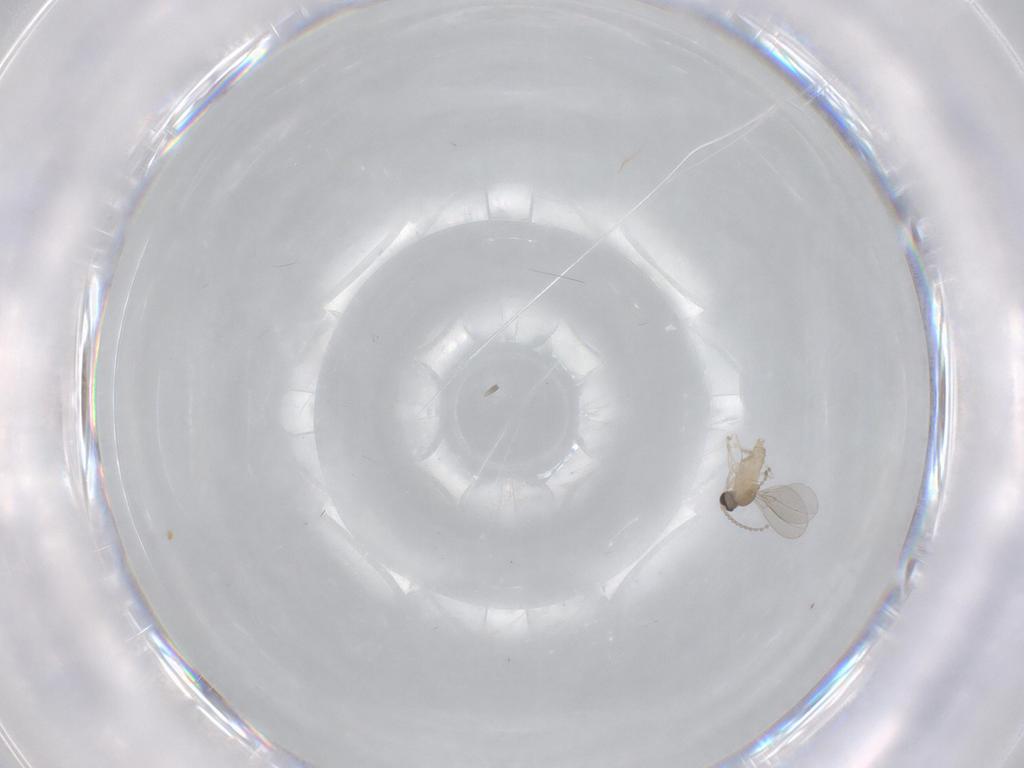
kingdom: Animalia
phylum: Arthropoda
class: Insecta
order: Diptera
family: Cecidomyiidae
